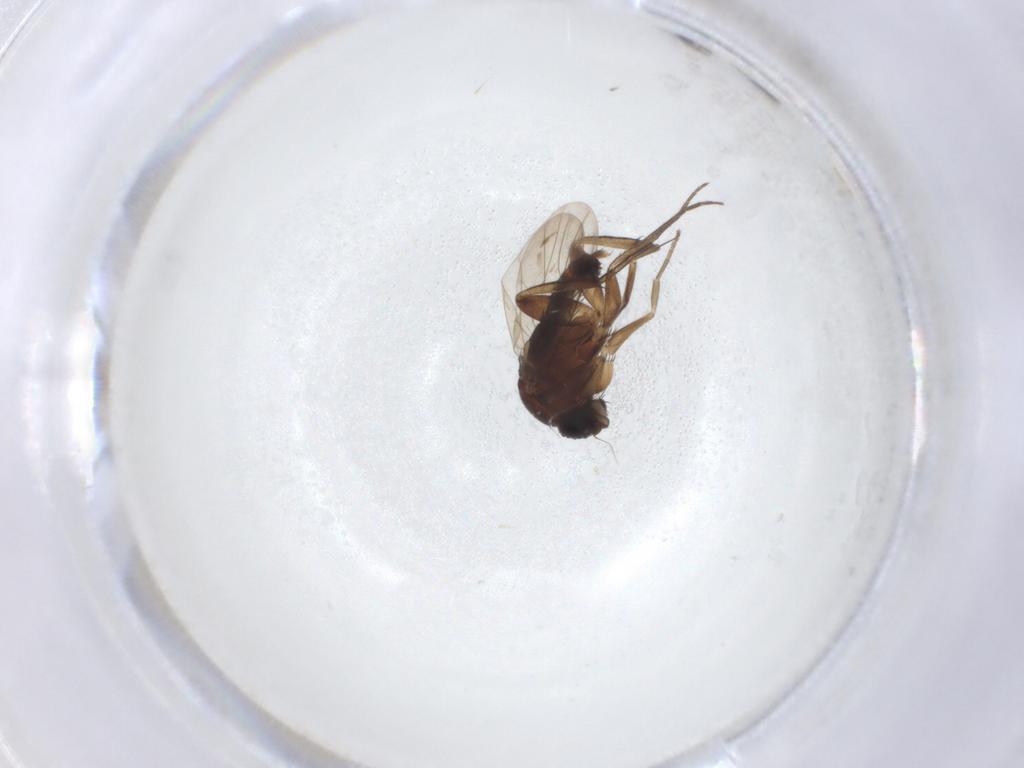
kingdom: Animalia
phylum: Arthropoda
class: Insecta
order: Diptera
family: Phoridae
